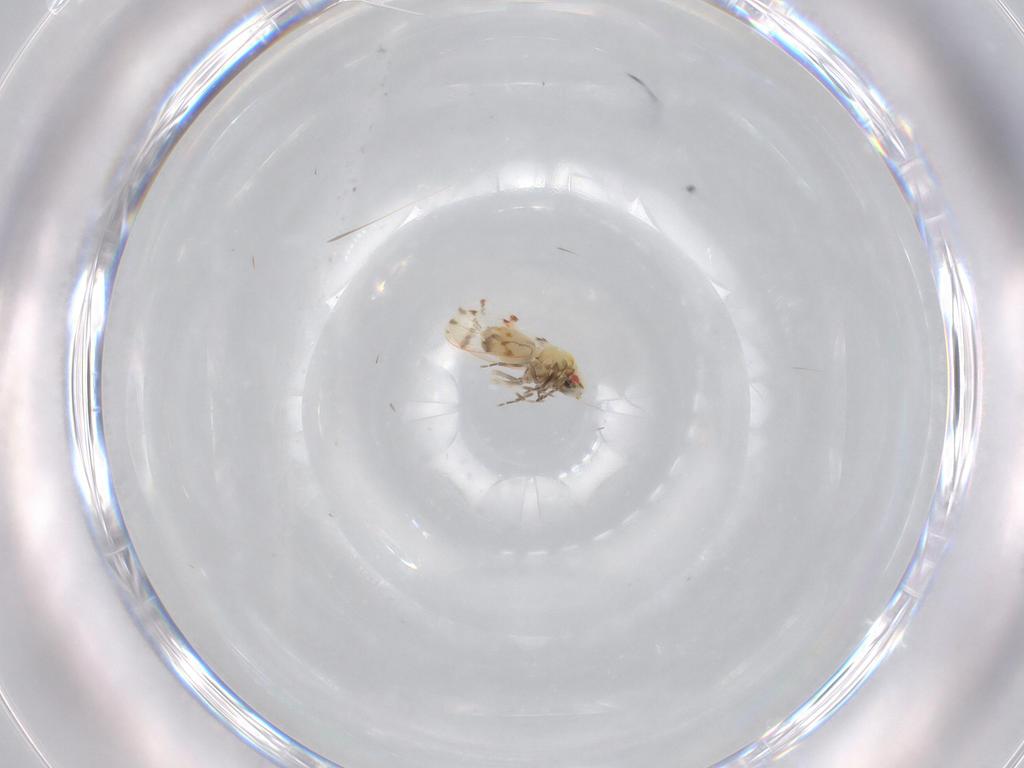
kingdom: Animalia
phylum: Arthropoda
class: Insecta
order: Hemiptera
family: Aleyrodidae
